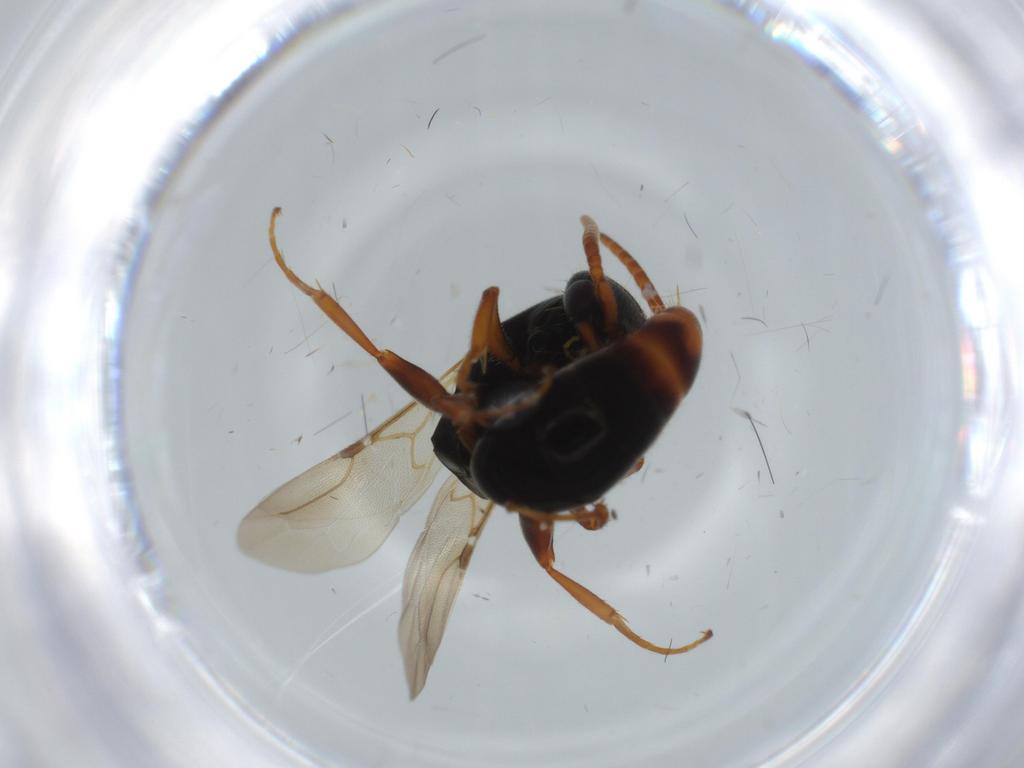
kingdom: Animalia
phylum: Arthropoda
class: Insecta
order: Hymenoptera
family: Bethylidae
